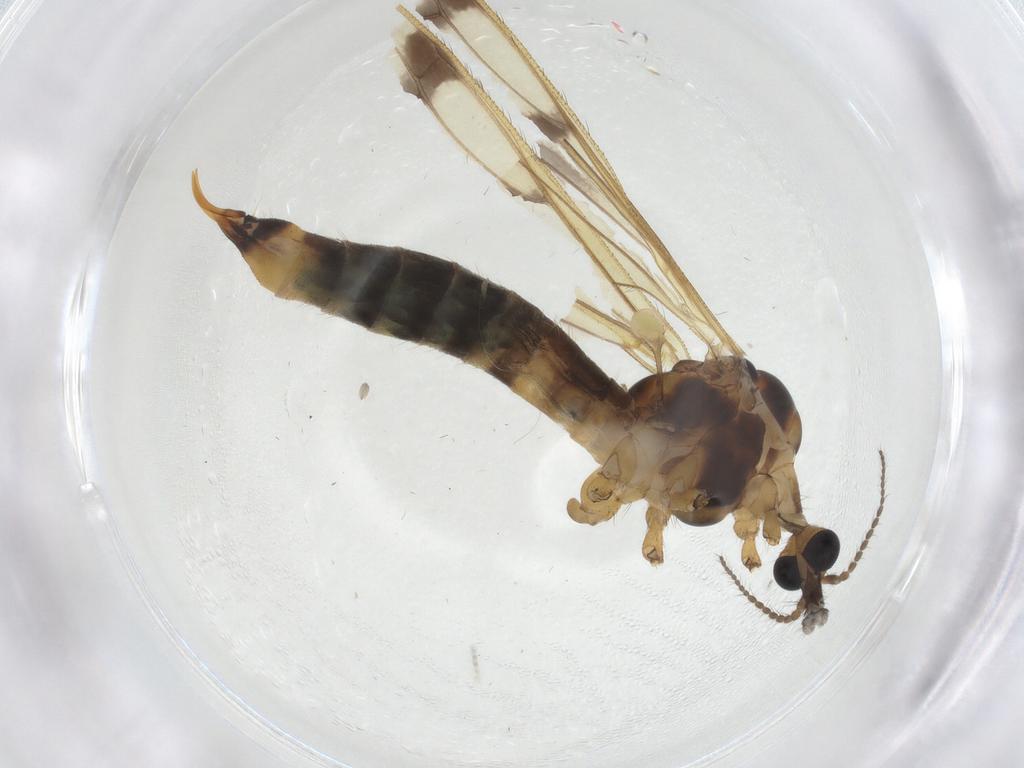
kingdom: Animalia
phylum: Arthropoda
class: Insecta
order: Diptera
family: Limoniidae
